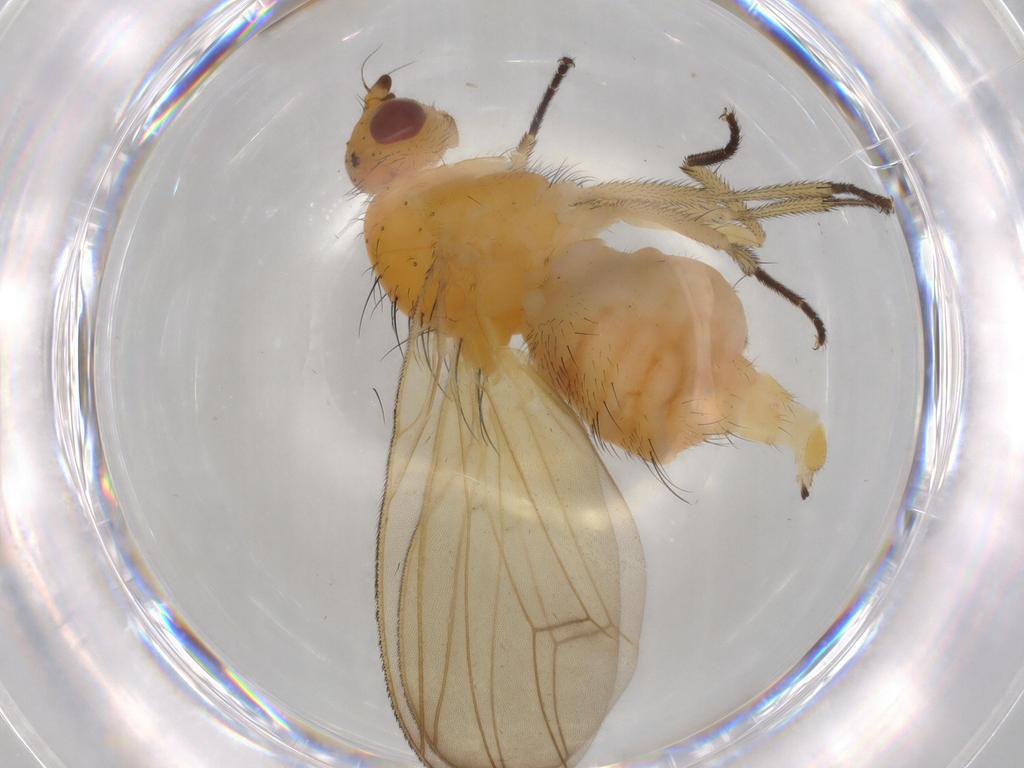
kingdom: Animalia
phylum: Arthropoda
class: Insecta
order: Diptera
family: Lauxaniidae
